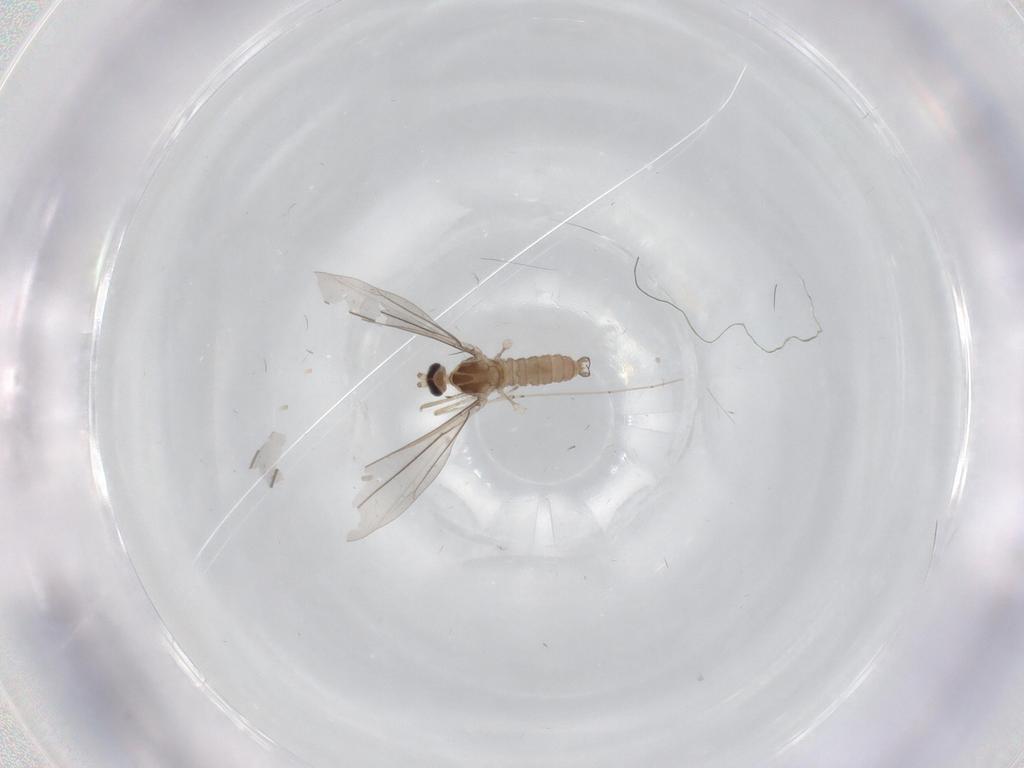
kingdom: Animalia
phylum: Arthropoda
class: Insecta
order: Diptera
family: Cecidomyiidae
